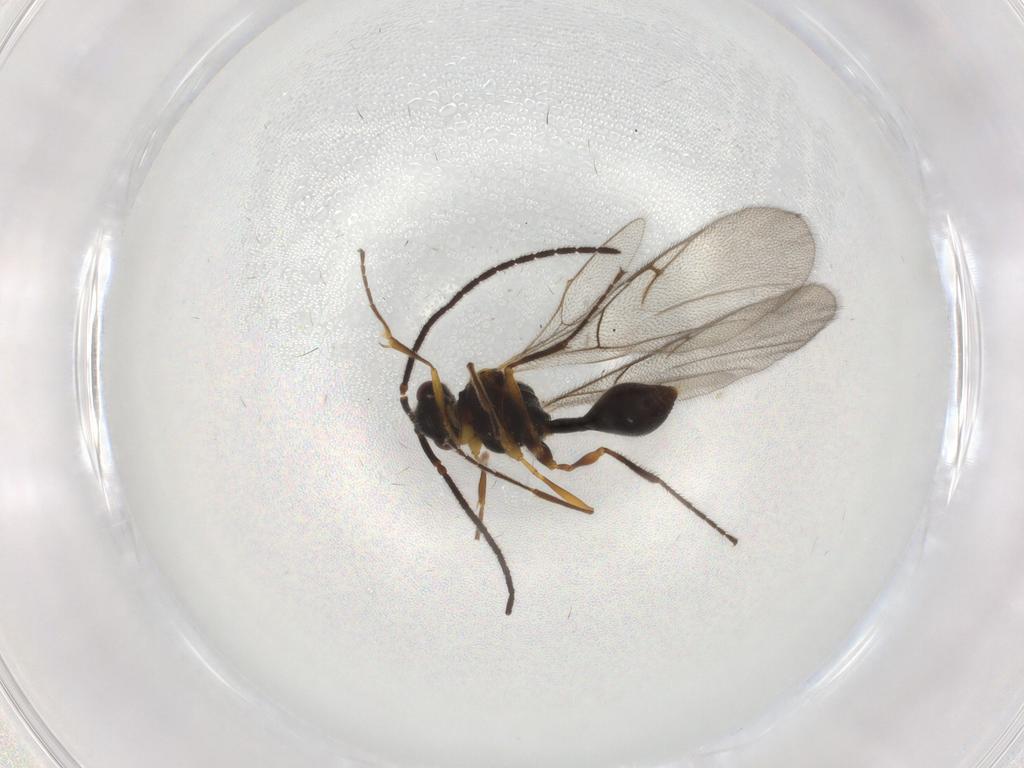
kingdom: Animalia
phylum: Arthropoda
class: Insecta
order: Hymenoptera
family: Diapriidae
